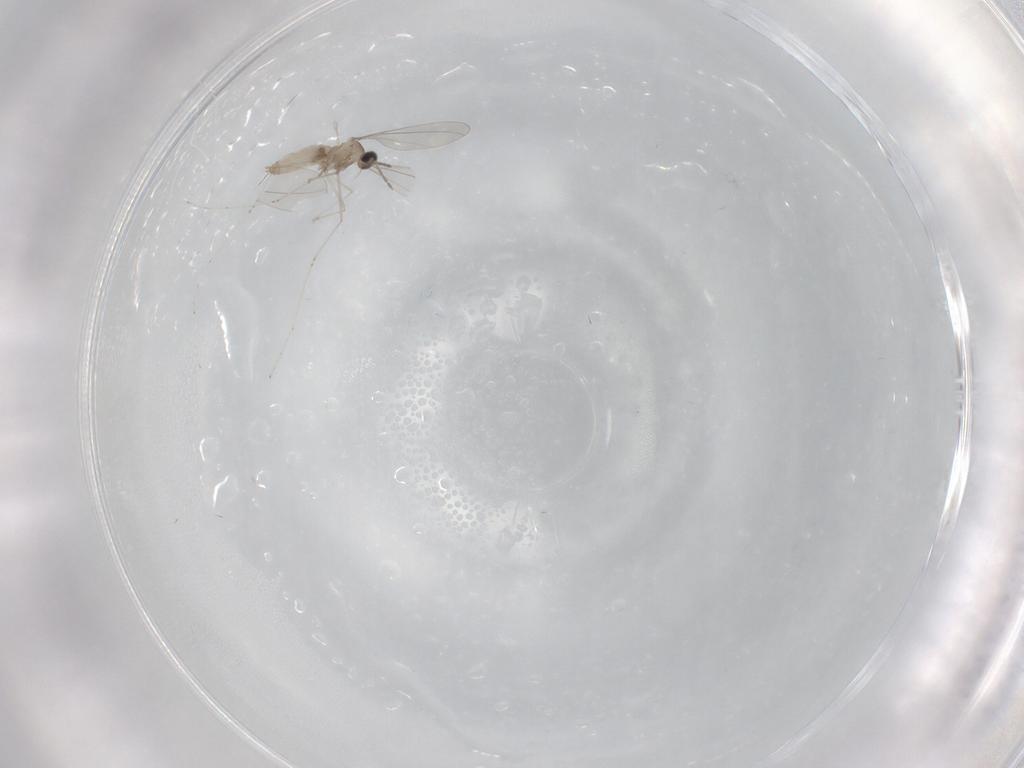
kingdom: Animalia
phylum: Arthropoda
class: Insecta
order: Diptera
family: Cecidomyiidae
